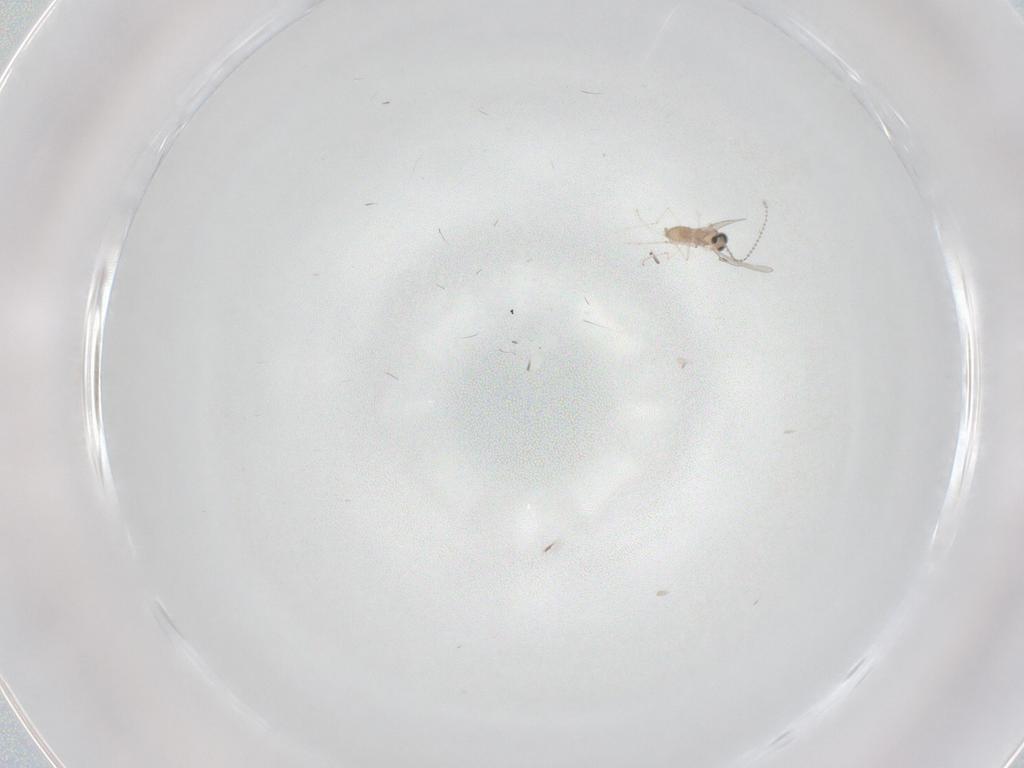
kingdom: Animalia
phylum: Arthropoda
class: Insecta
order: Diptera
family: Cecidomyiidae
